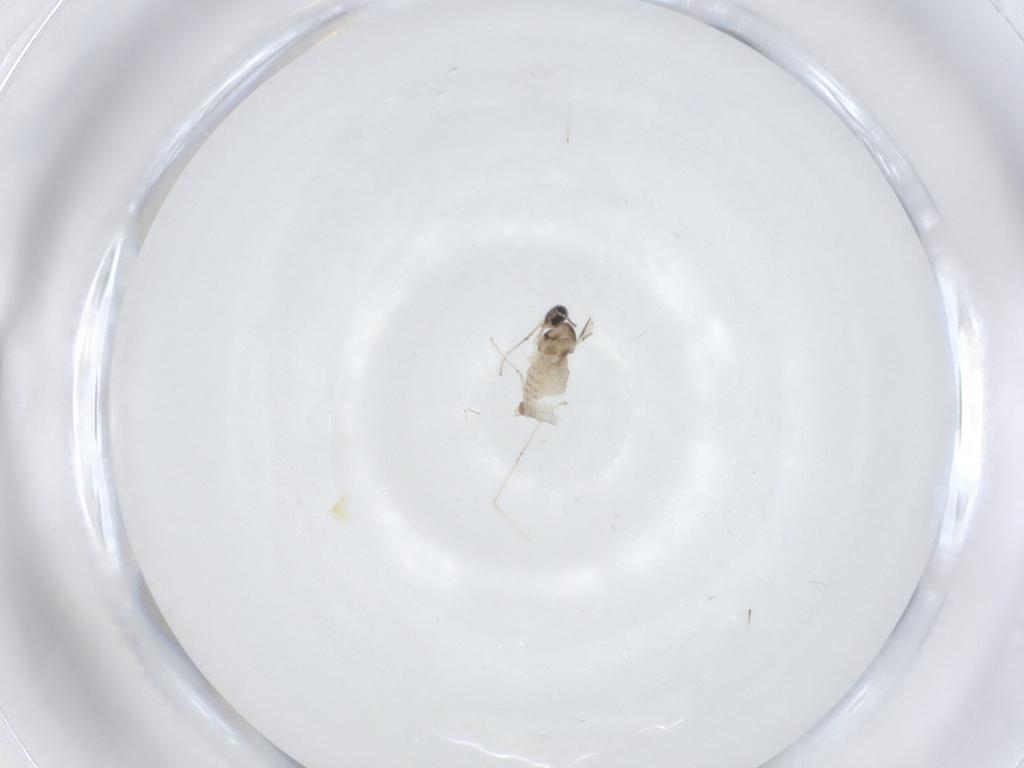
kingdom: Animalia
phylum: Arthropoda
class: Insecta
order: Diptera
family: Cecidomyiidae
